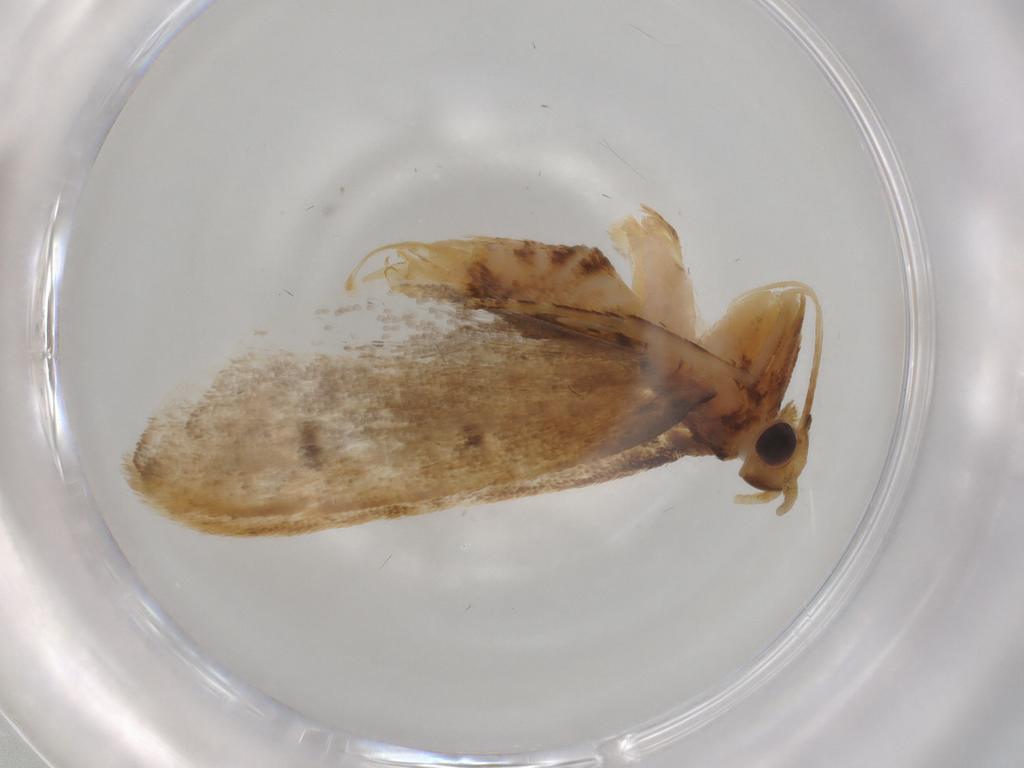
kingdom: Animalia
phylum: Arthropoda
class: Insecta
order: Lepidoptera
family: Lecithoceridae
